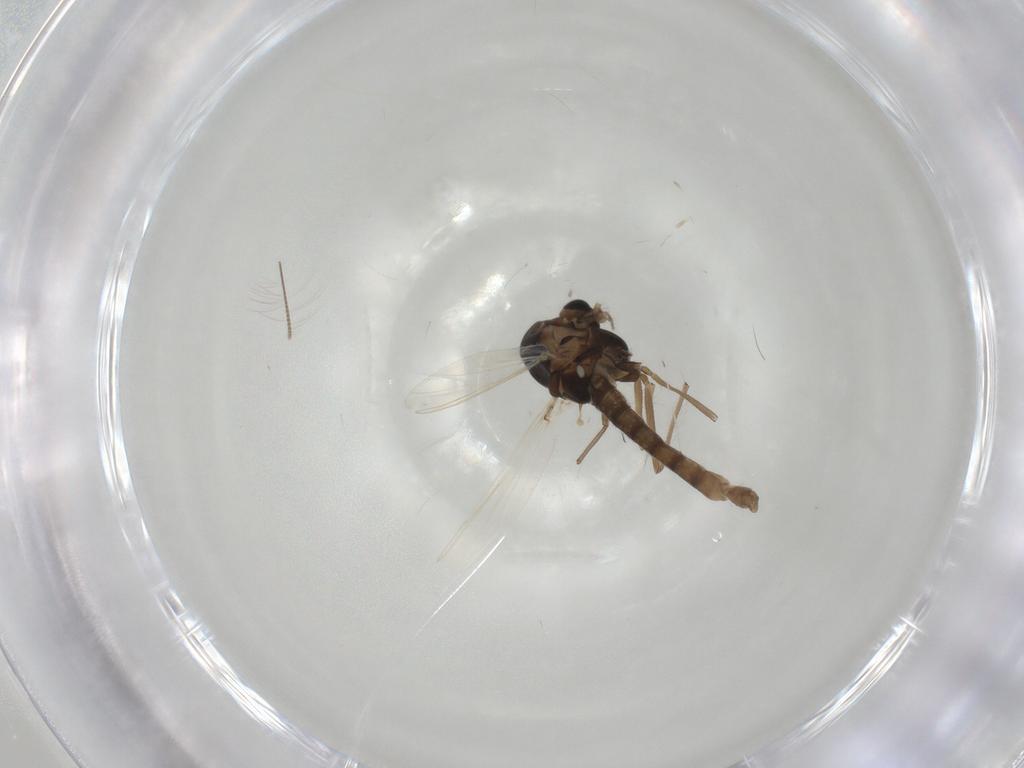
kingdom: Animalia
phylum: Arthropoda
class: Insecta
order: Diptera
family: Chironomidae
